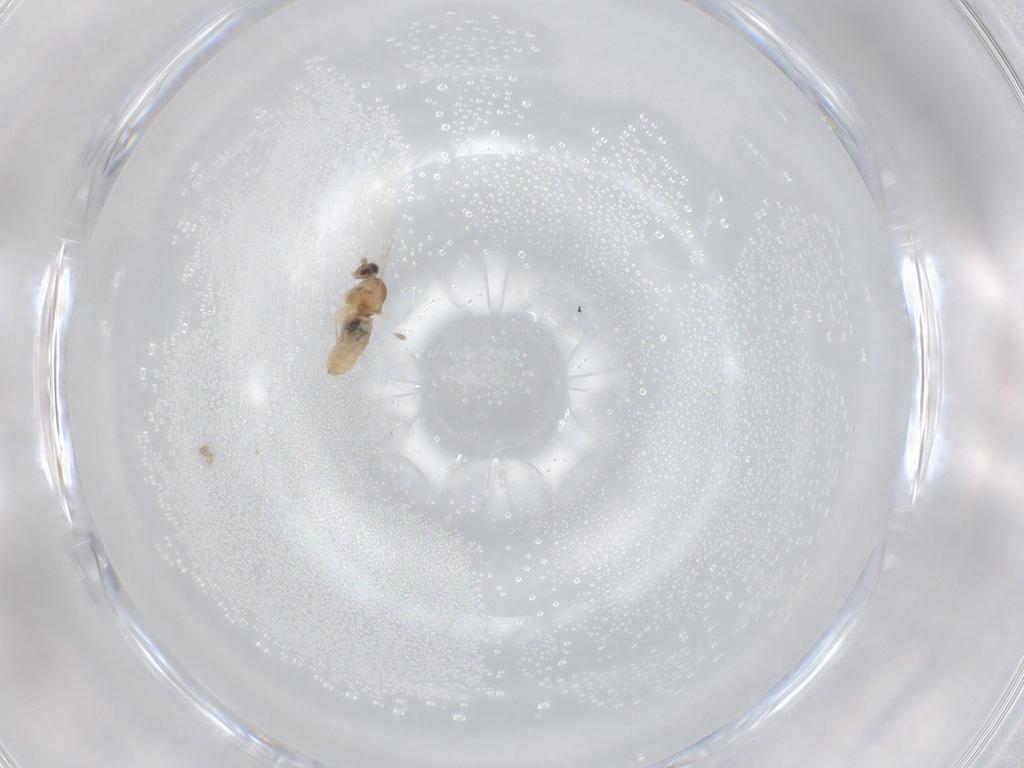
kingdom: Animalia
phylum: Arthropoda
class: Insecta
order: Diptera
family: Cecidomyiidae
